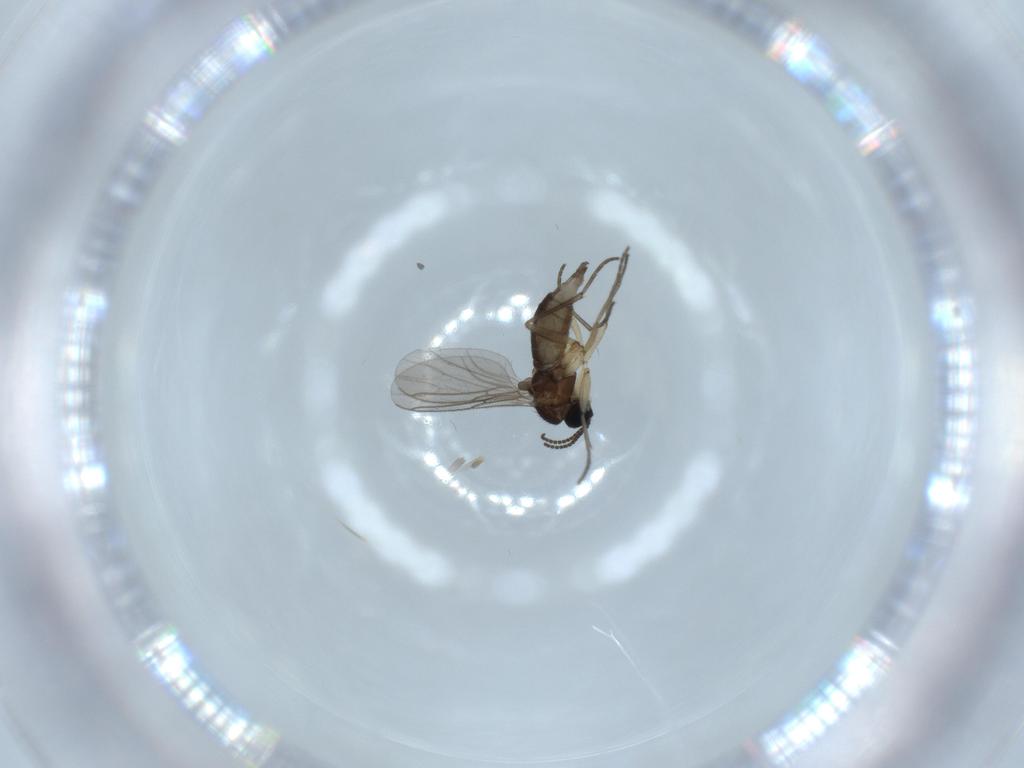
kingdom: Animalia
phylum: Arthropoda
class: Insecta
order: Diptera
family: Sciaridae
